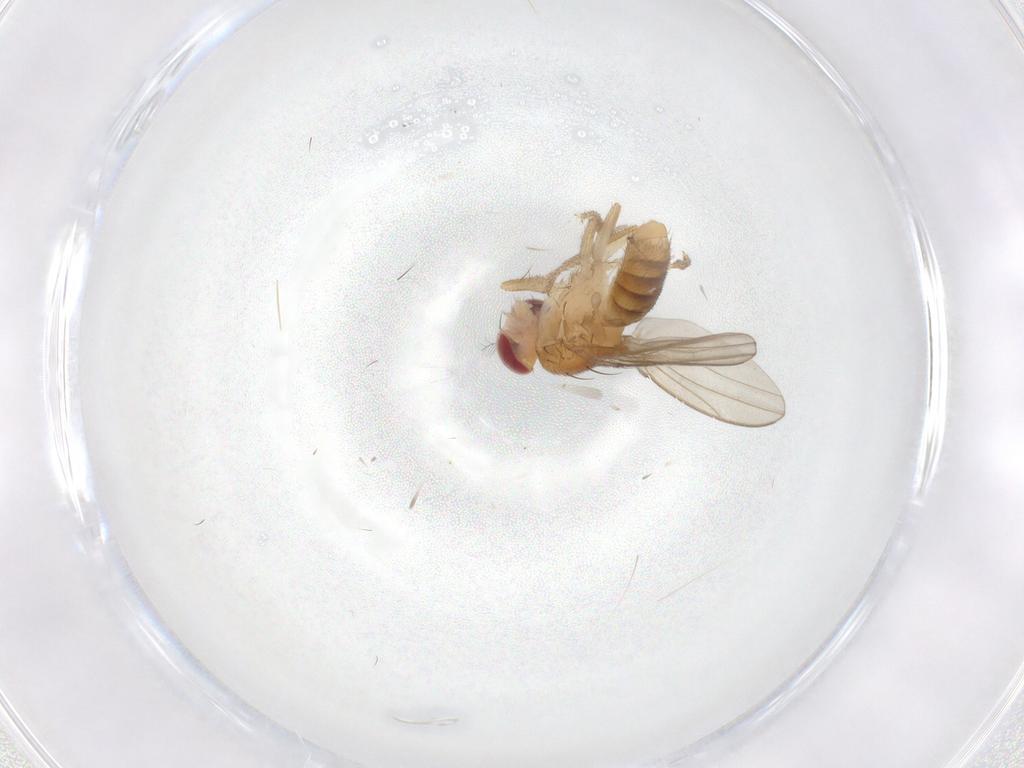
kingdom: Animalia
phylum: Arthropoda
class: Insecta
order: Diptera
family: Drosophilidae
